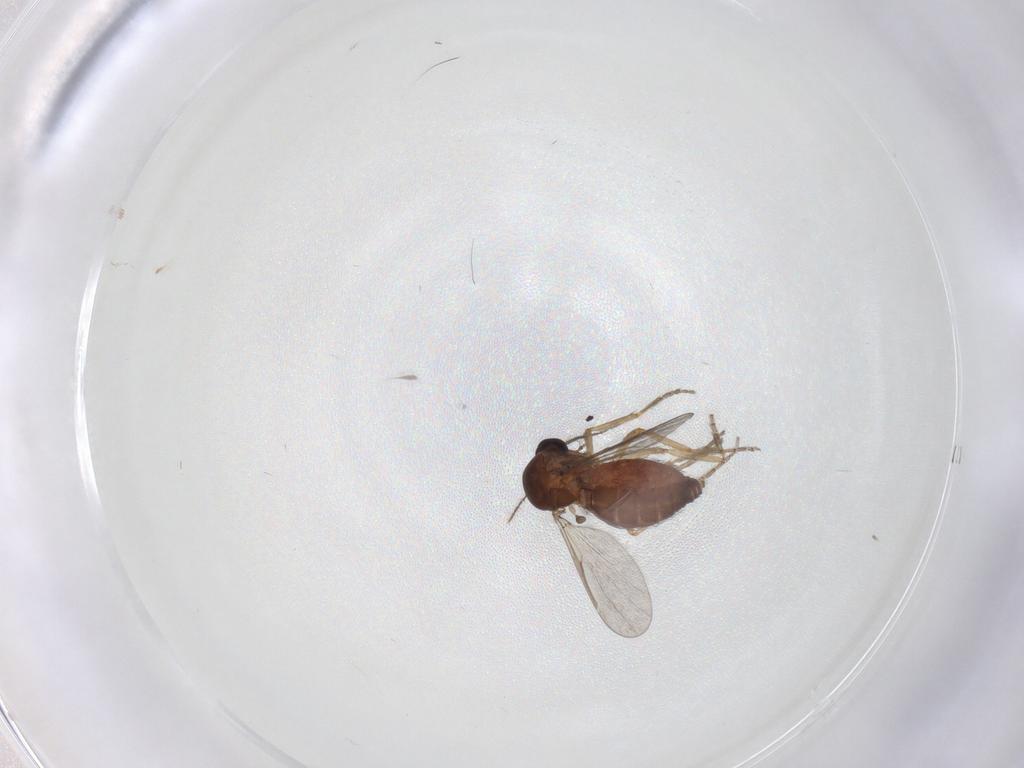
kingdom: Animalia
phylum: Arthropoda
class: Insecta
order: Diptera
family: Ceratopogonidae
